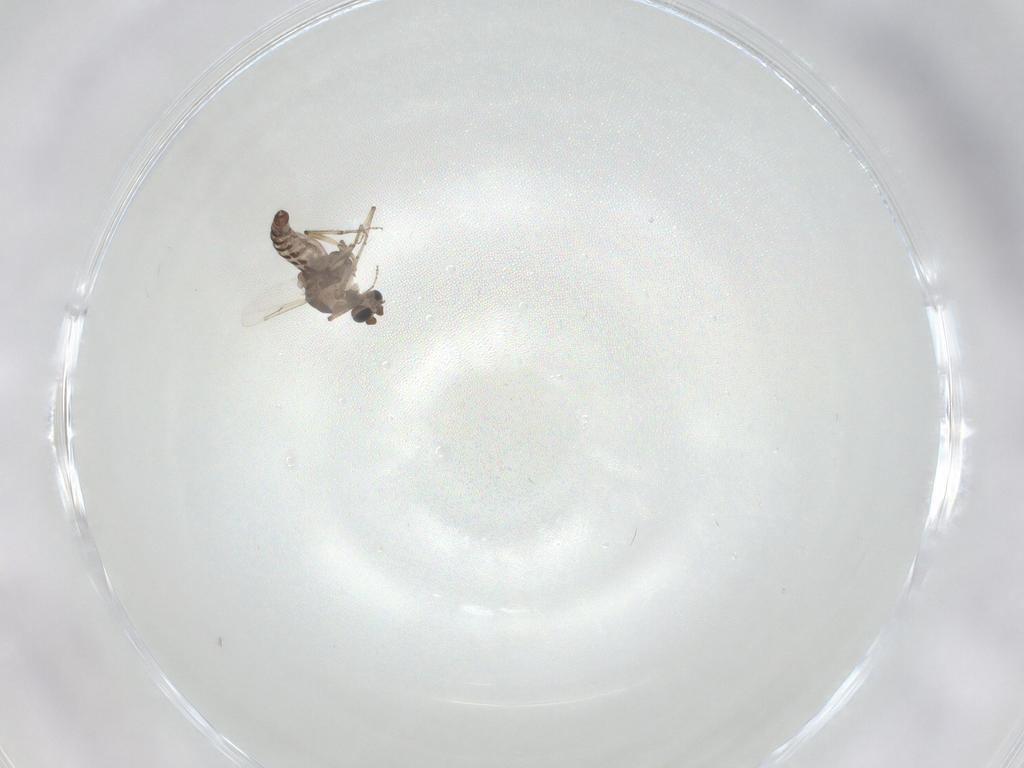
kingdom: Animalia
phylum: Arthropoda
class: Insecta
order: Diptera
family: Ceratopogonidae
